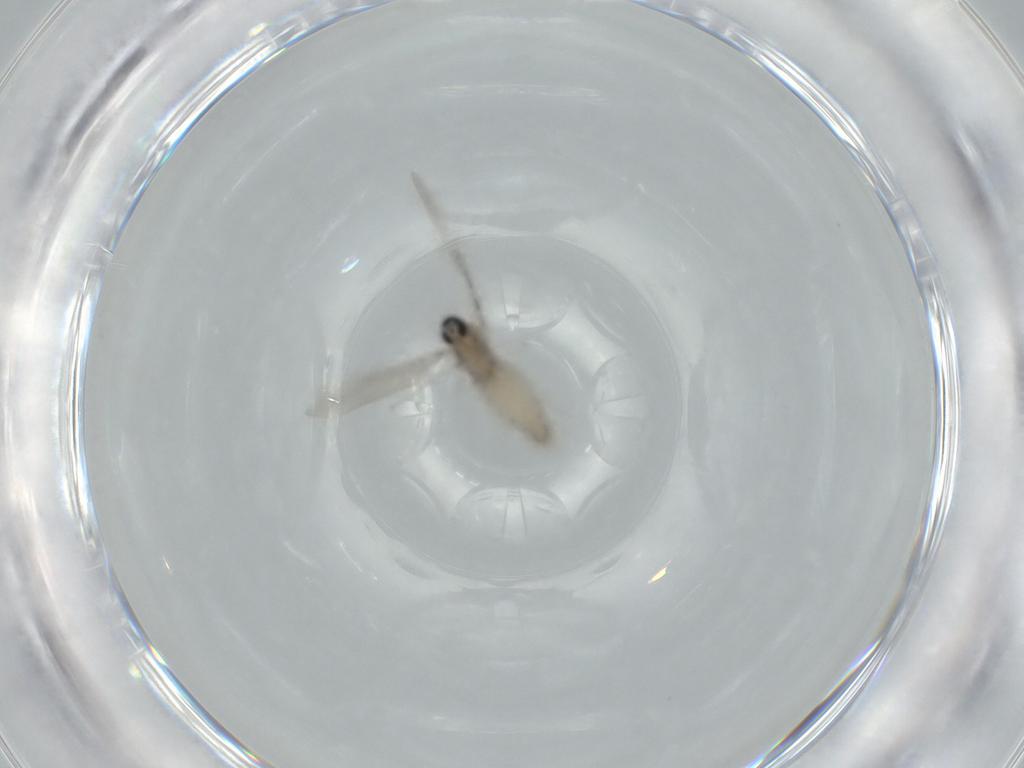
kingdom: Animalia
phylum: Arthropoda
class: Insecta
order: Diptera
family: Cecidomyiidae
